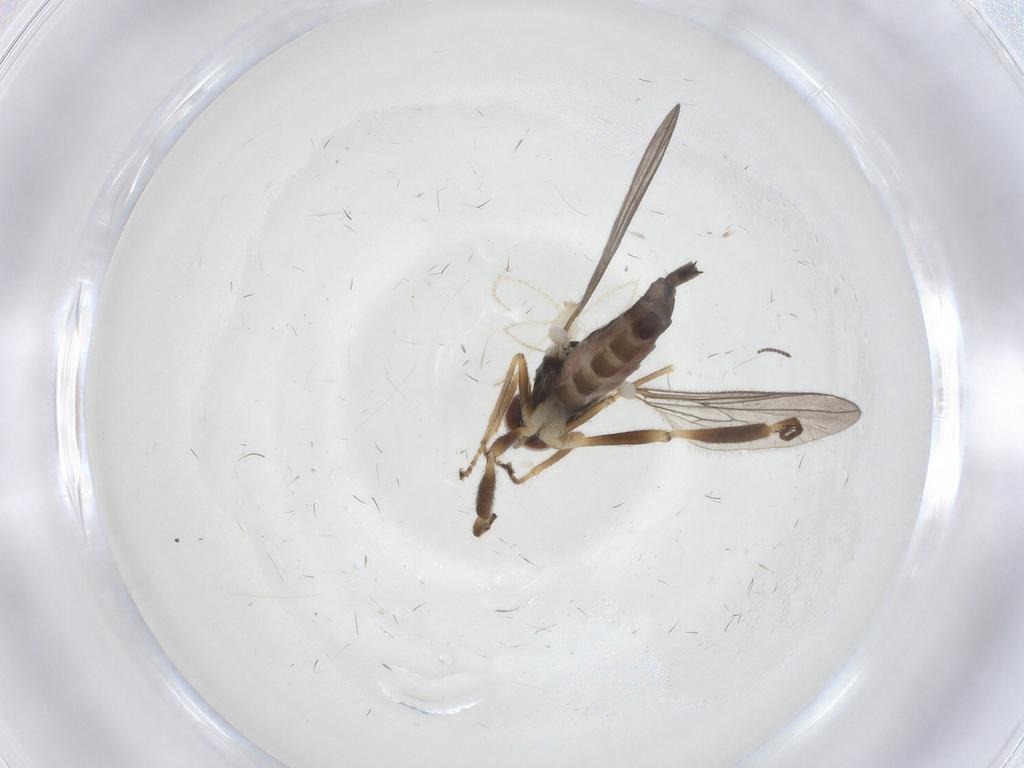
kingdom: Animalia
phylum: Arthropoda
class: Insecta
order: Diptera
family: Hybotidae
